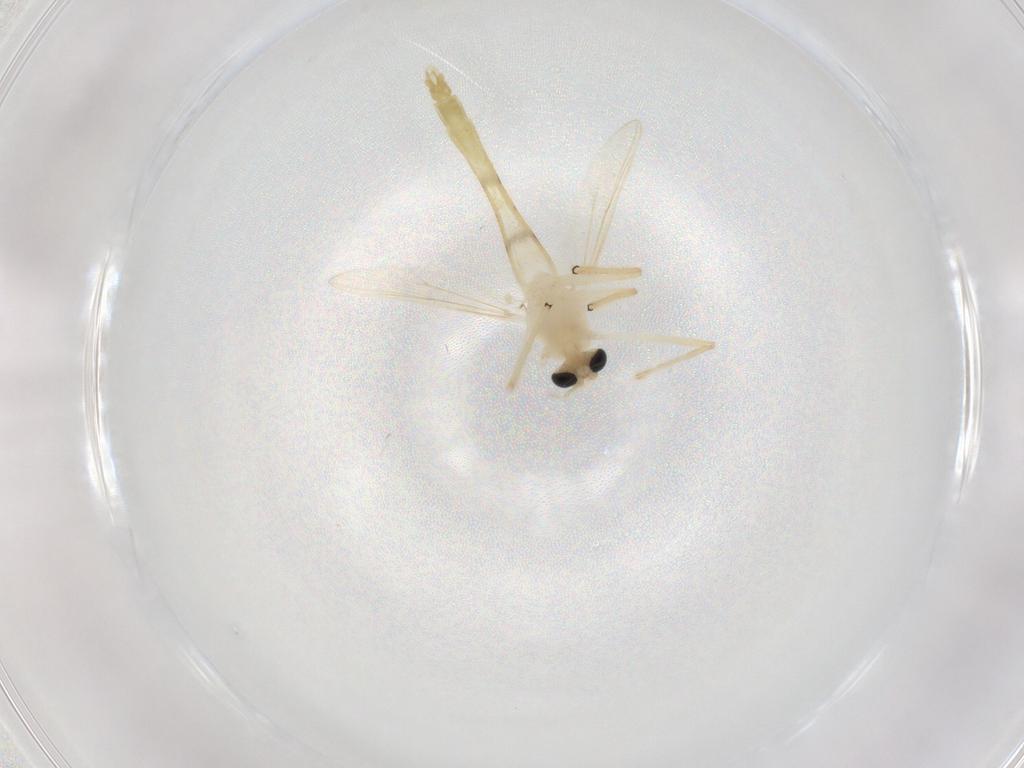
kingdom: Animalia
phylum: Arthropoda
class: Insecta
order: Diptera
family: Chironomidae
